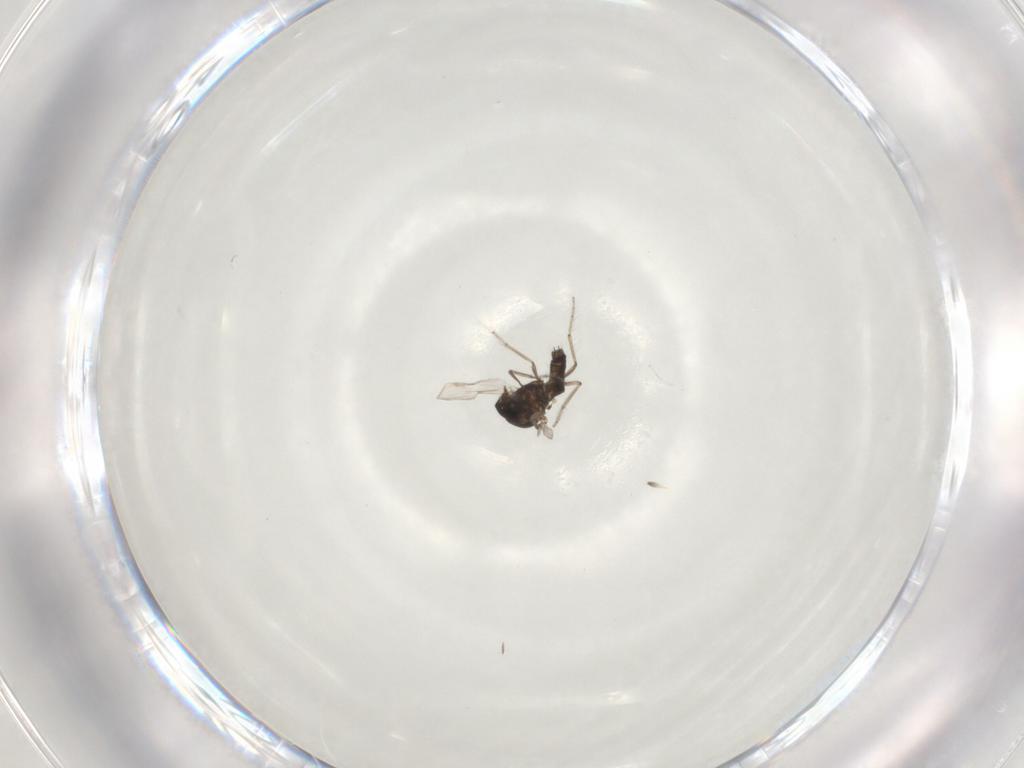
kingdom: Animalia
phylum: Arthropoda
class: Insecta
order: Diptera
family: Ceratopogonidae
